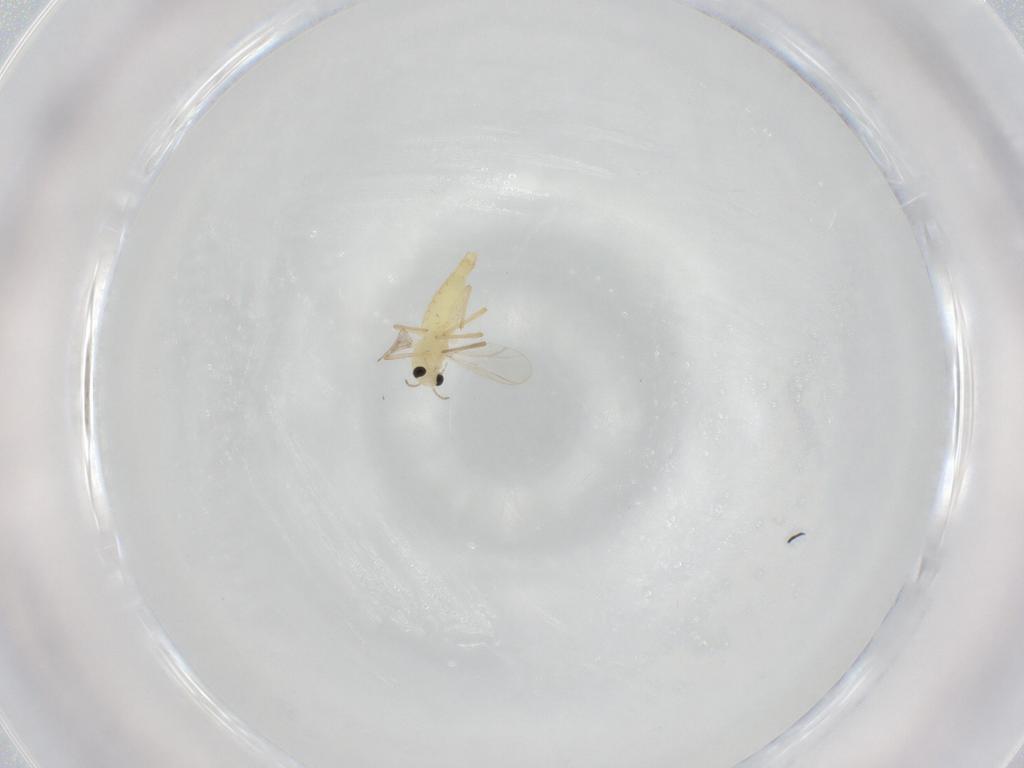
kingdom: Animalia
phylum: Arthropoda
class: Insecta
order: Diptera
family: Chironomidae
